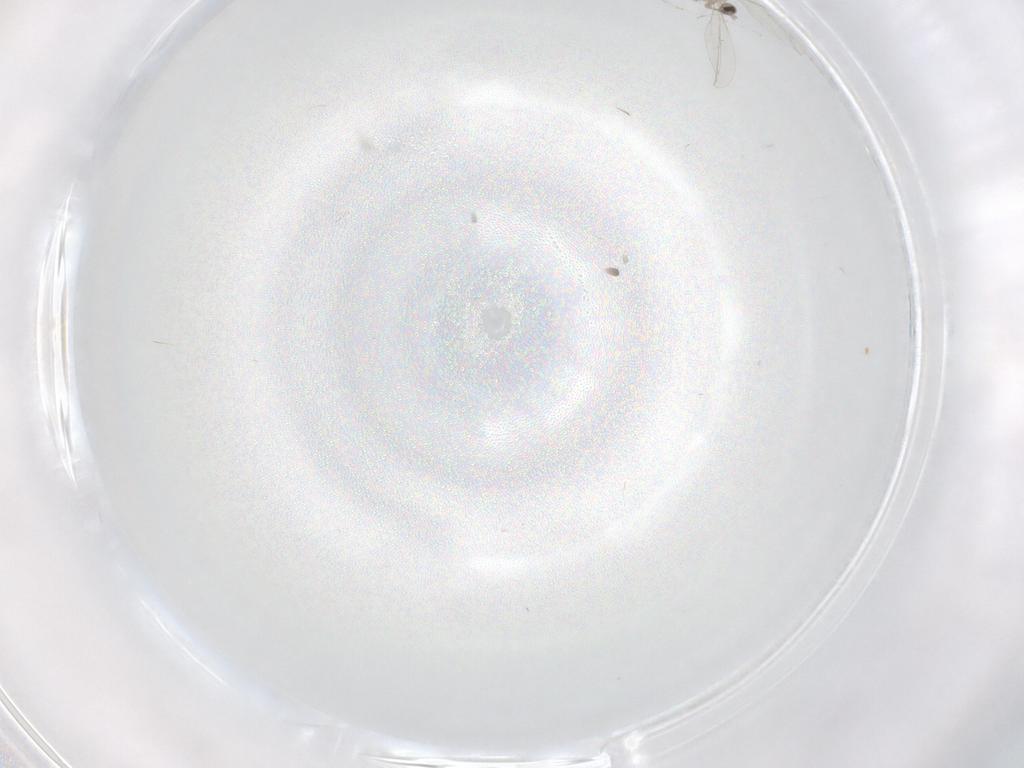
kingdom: Animalia
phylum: Arthropoda
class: Insecta
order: Diptera
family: Cecidomyiidae
